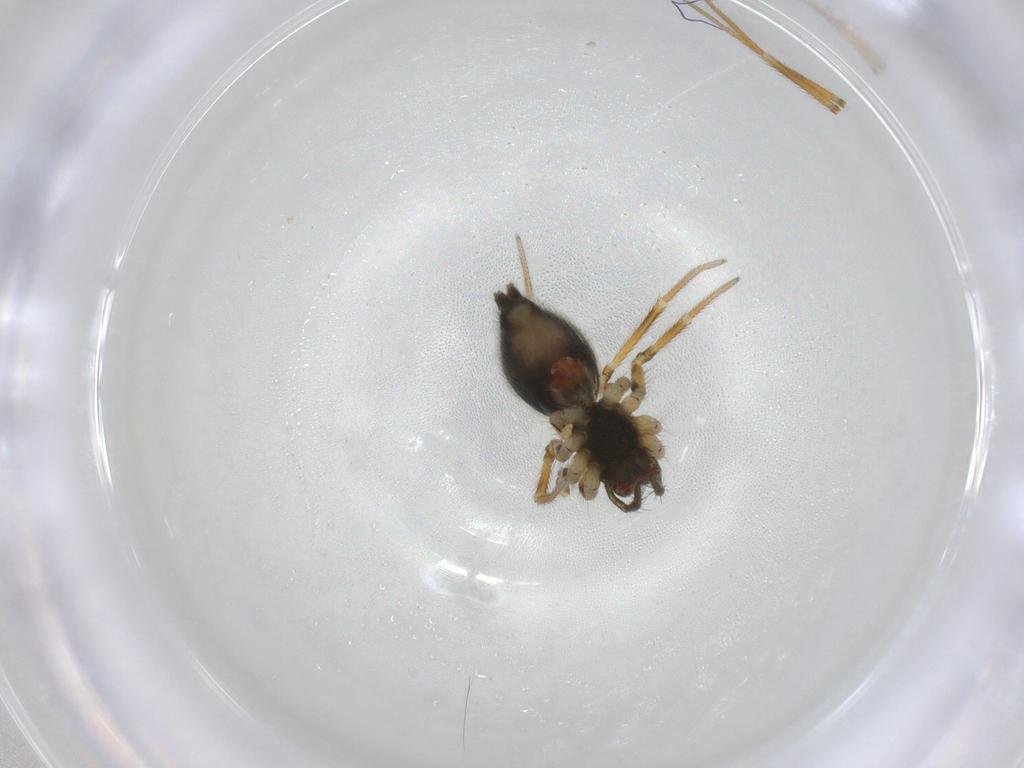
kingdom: Animalia
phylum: Arthropoda
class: Arachnida
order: Araneae
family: Linyphiidae
